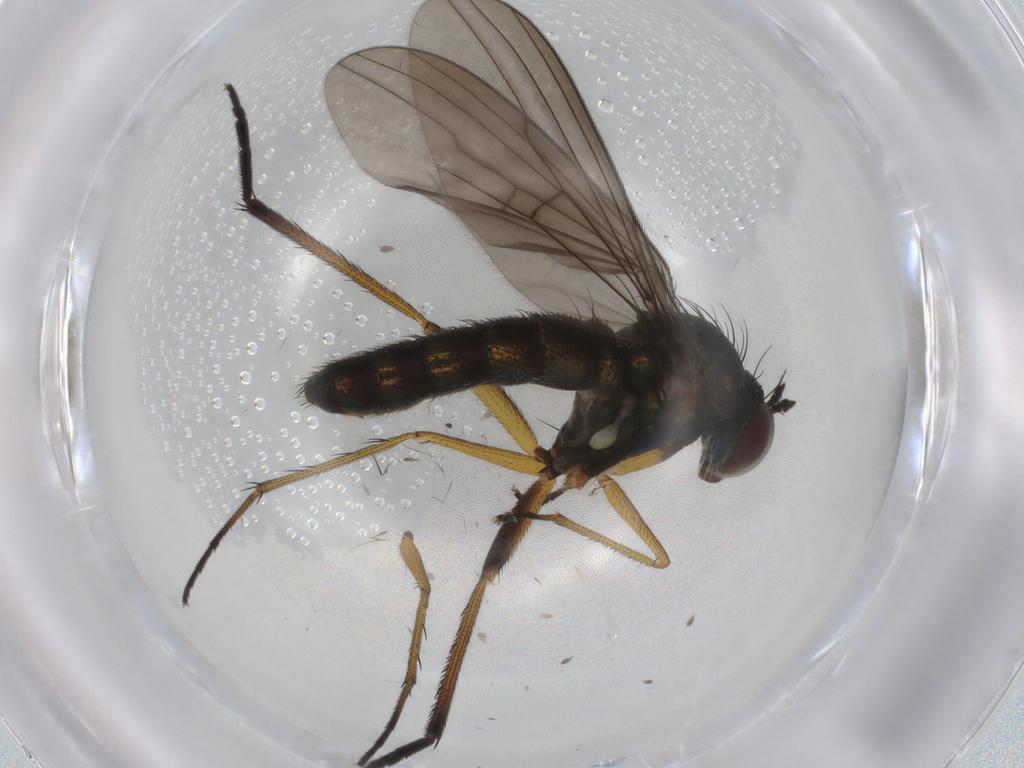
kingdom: Animalia
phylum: Arthropoda
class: Insecta
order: Diptera
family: Dolichopodidae
